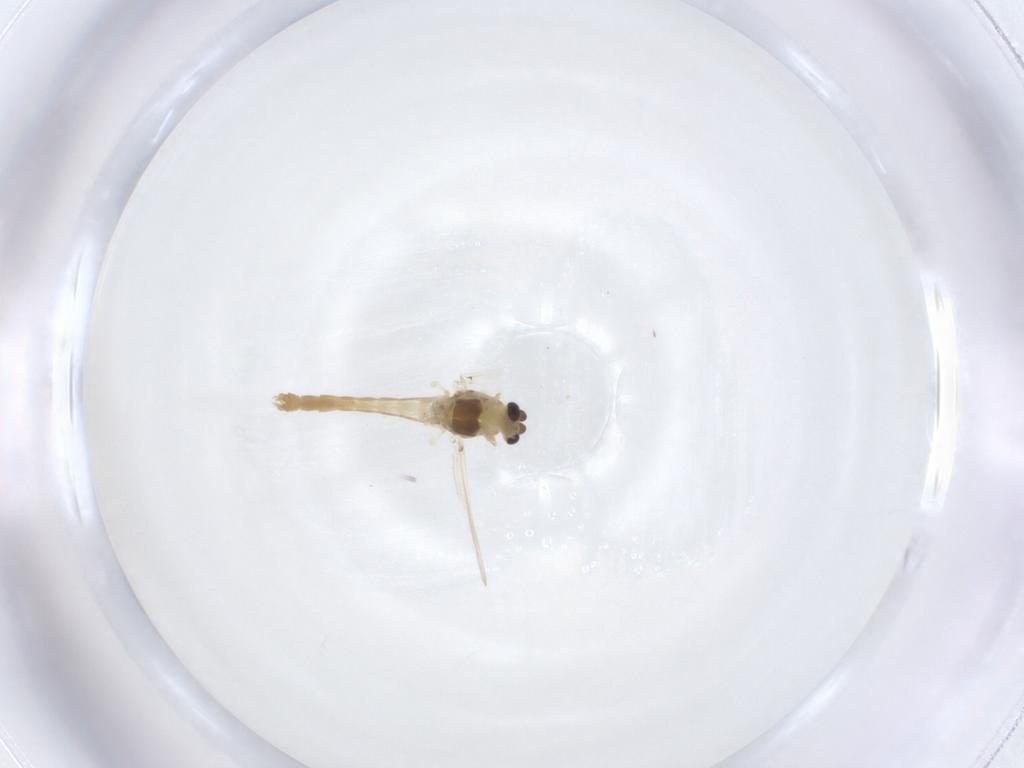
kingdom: Animalia
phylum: Arthropoda
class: Insecta
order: Diptera
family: Chironomidae
